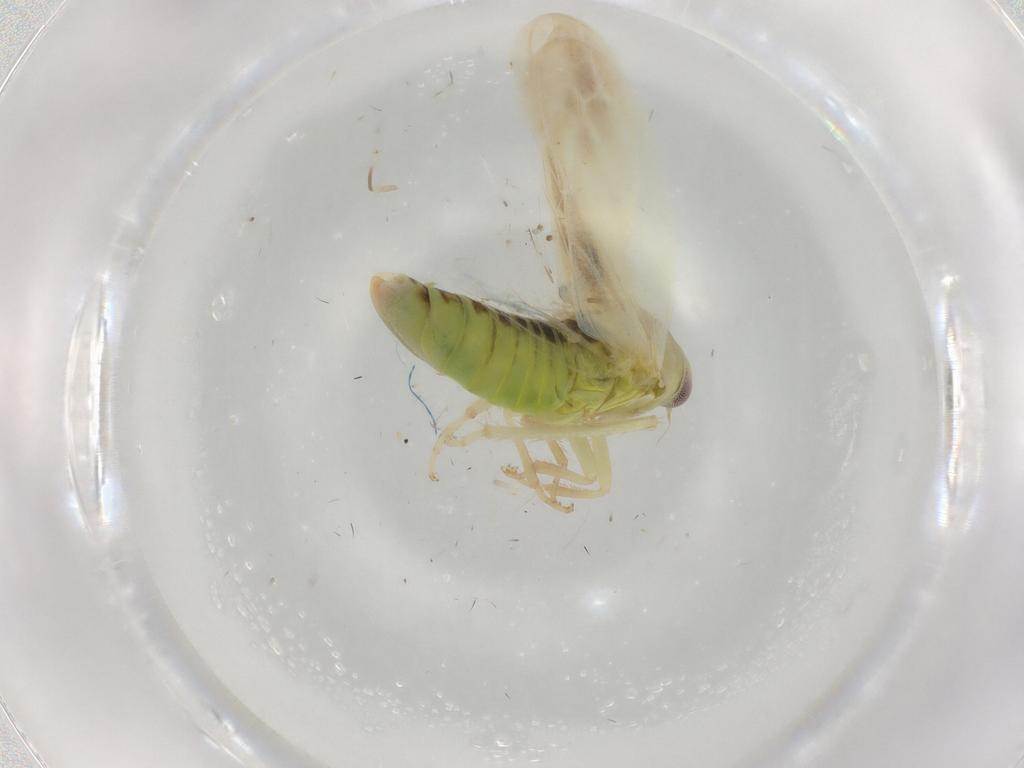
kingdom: Animalia
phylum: Arthropoda
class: Insecta
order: Hemiptera
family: Cicadellidae
